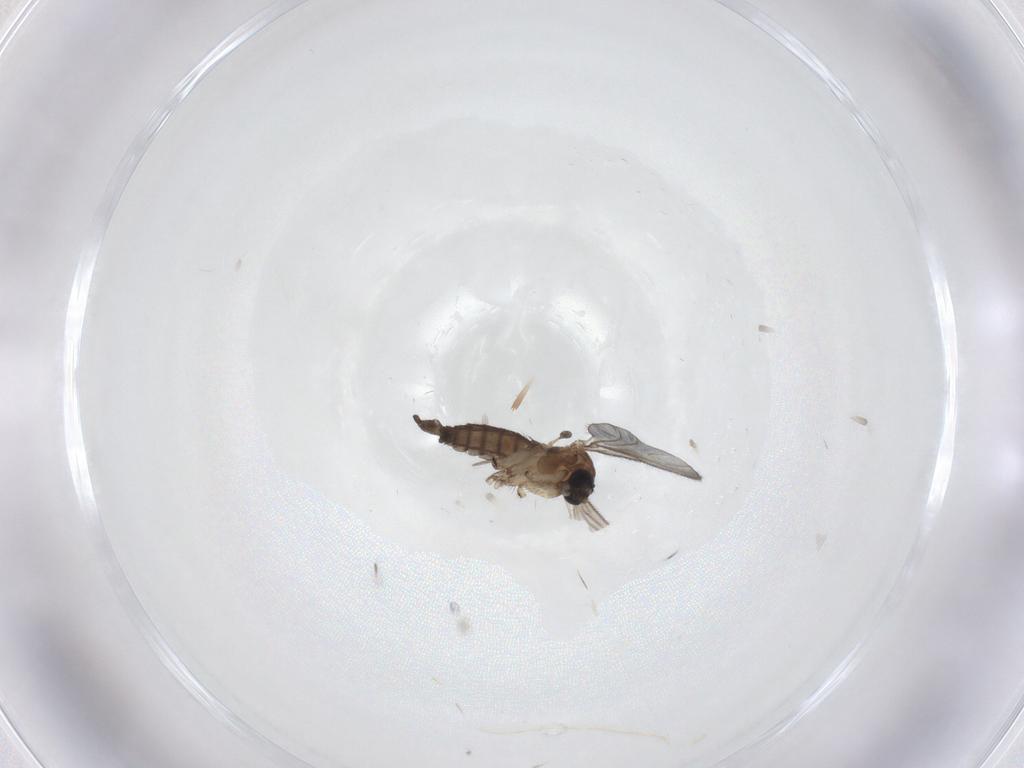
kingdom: Animalia
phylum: Arthropoda
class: Insecta
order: Diptera
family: Sciaridae
